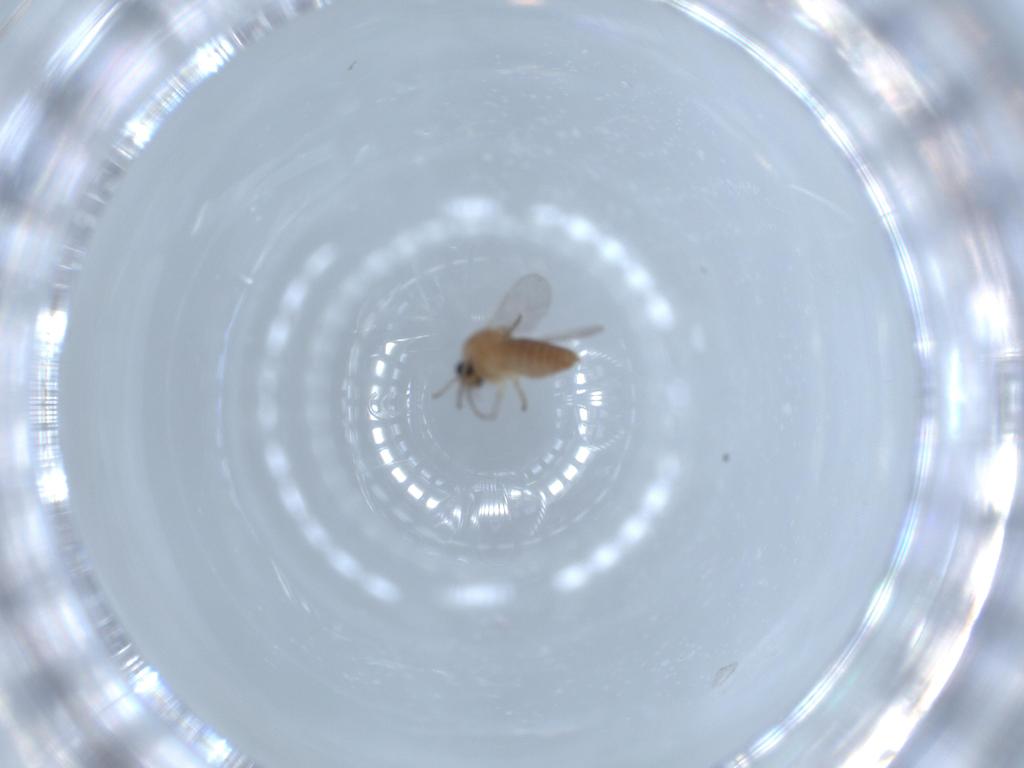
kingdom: Animalia
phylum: Arthropoda
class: Insecta
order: Diptera
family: Ceratopogonidae
